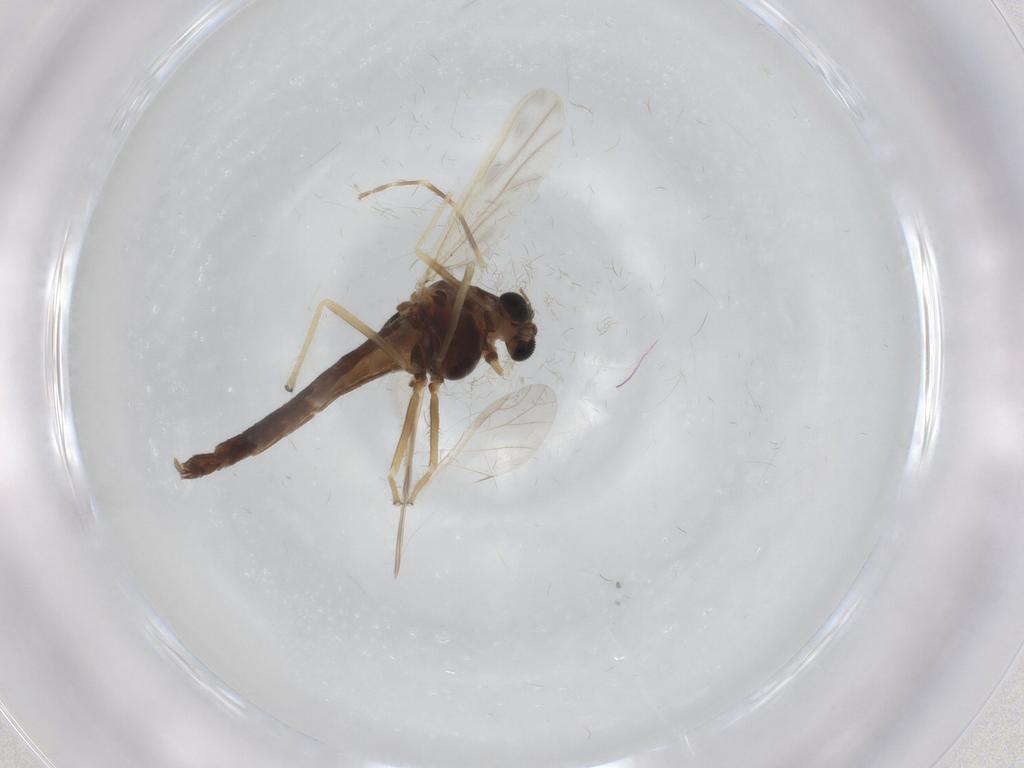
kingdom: Animalia
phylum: Arthropoda
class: Insecta
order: Diptera
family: Chironomidae
